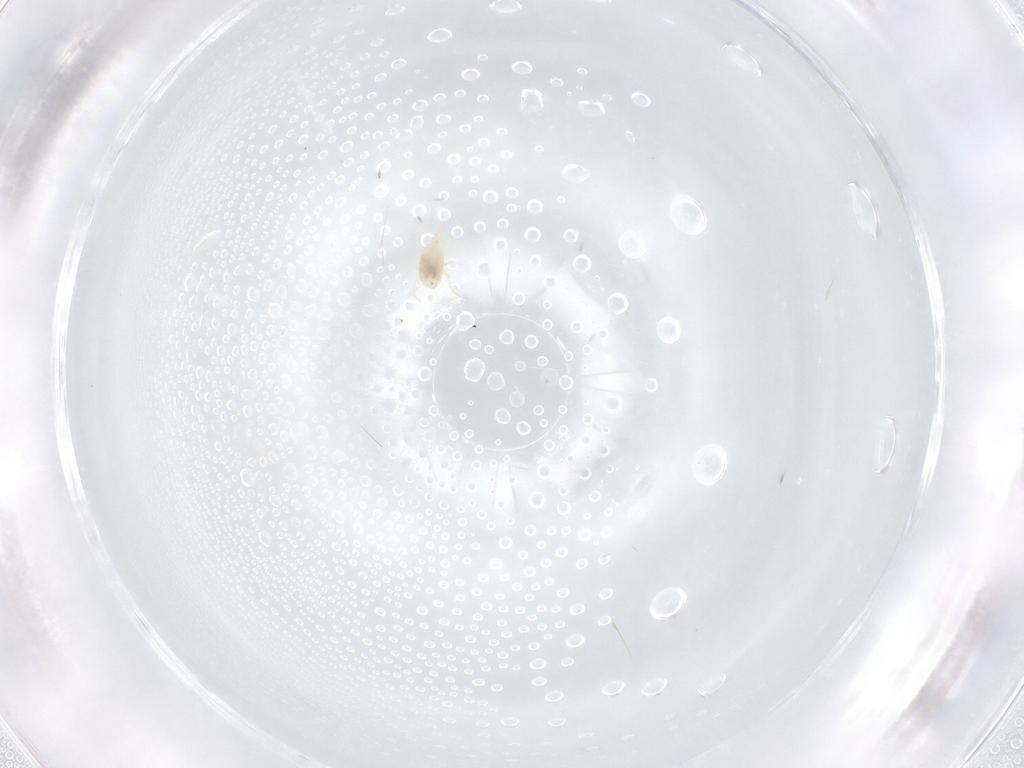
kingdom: Animalia
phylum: Arthropoda
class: Arachnida
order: Mesostigmata
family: Melicharidae
